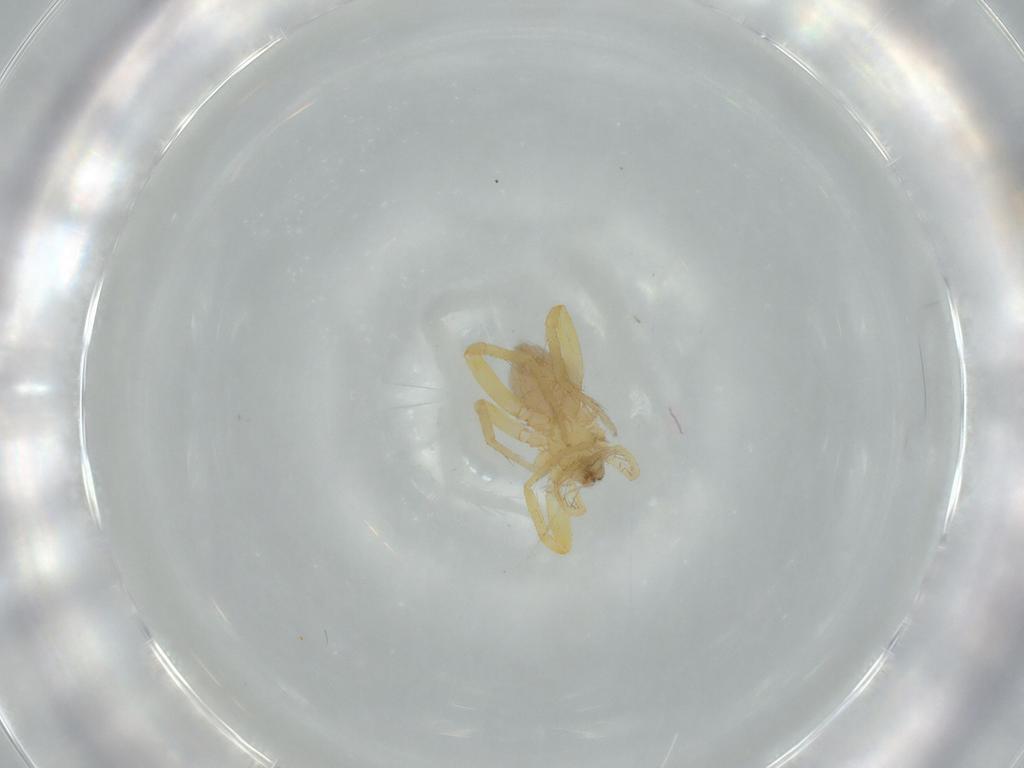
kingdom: Animalia
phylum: Arthropoda
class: Arachnida
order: Araneae
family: Oonopidae
